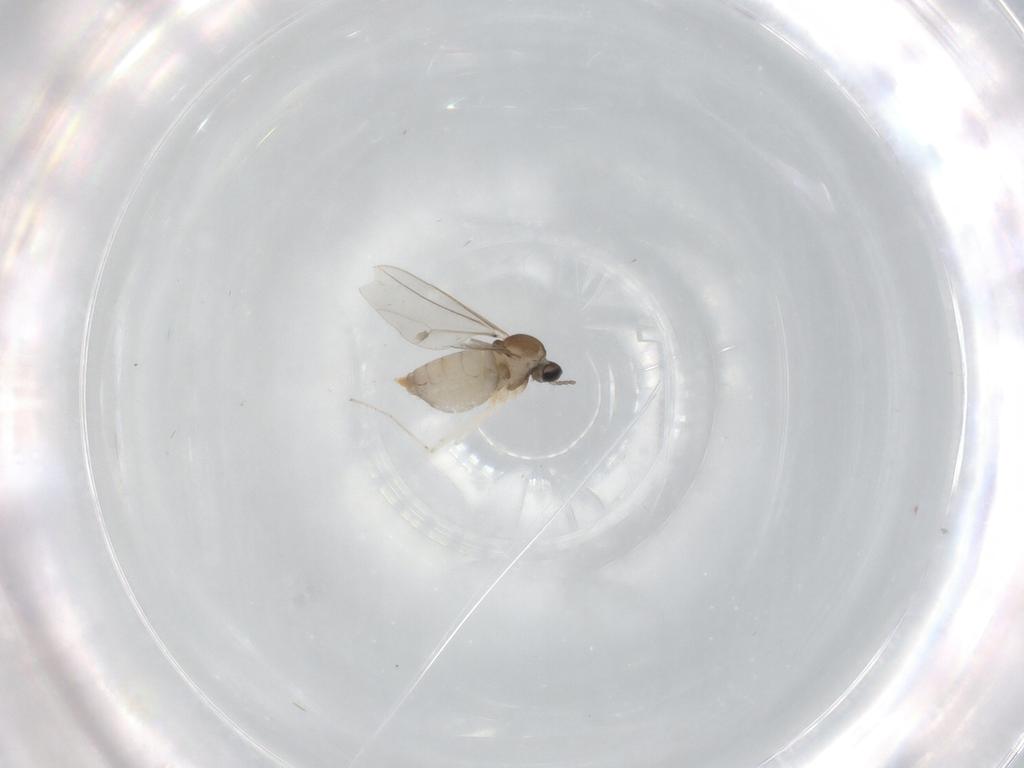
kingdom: Animalia
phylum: Arthropoda
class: Insecta
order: Diptera
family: Cecidomyiidae
